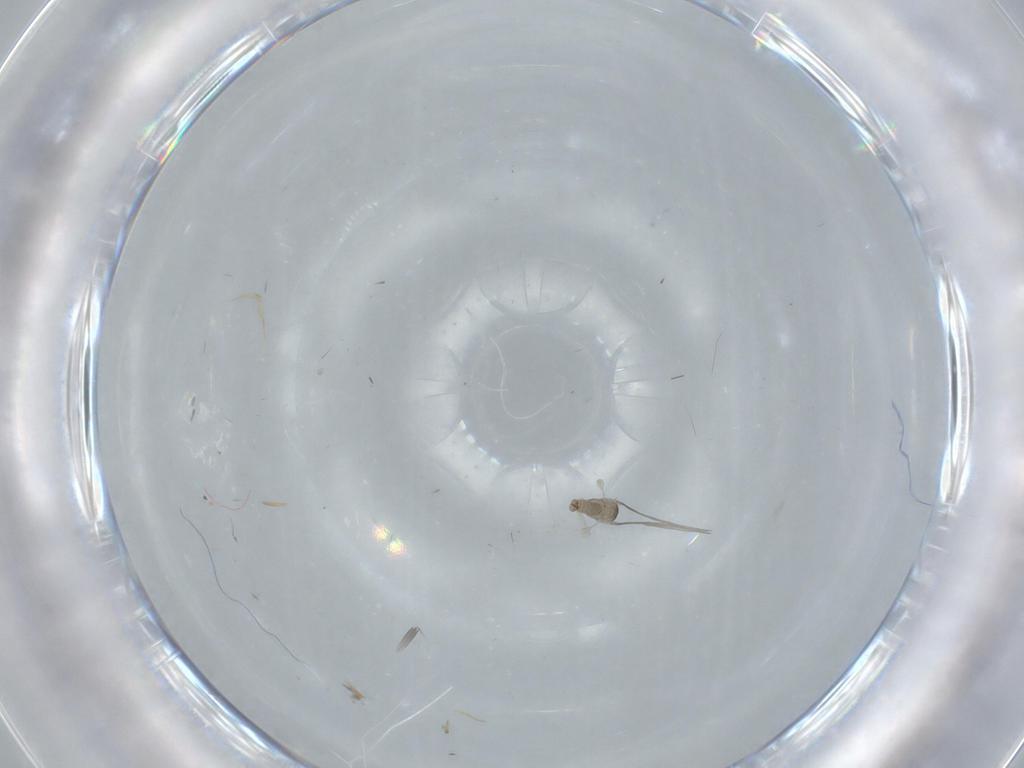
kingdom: Animalia
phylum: Arthropoda
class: Insecta
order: Diptera
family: Cecidomyiidae
